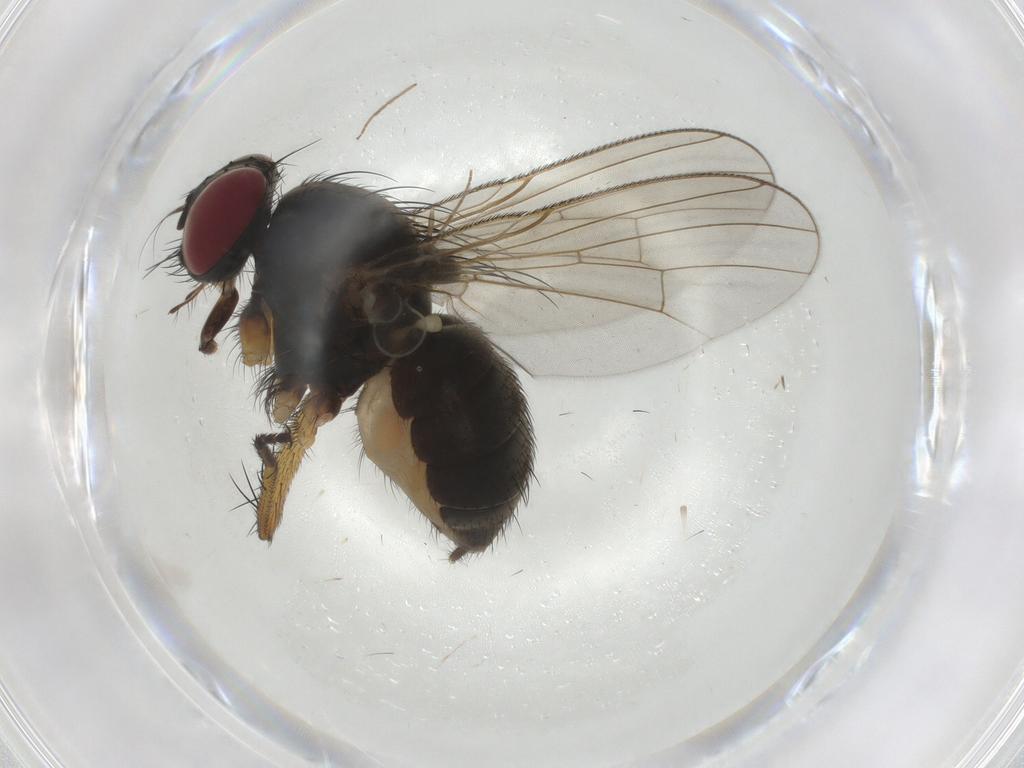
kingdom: Animalia
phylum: Arthropoda
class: Insecta
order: Diptera
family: Muscidae
